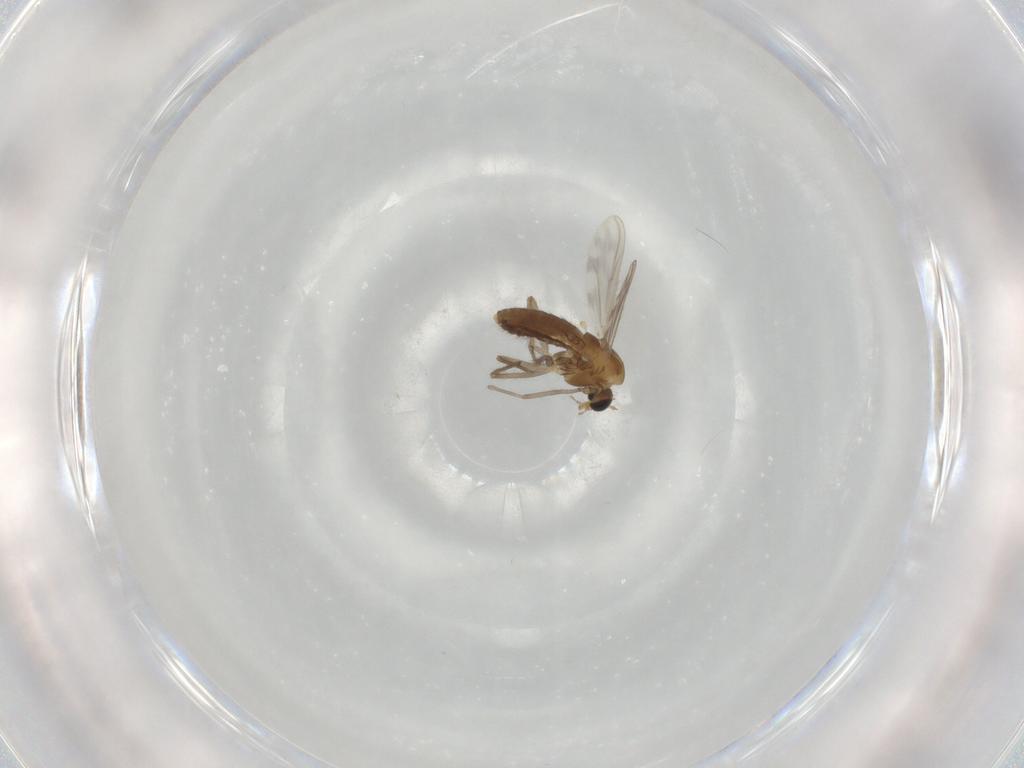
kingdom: Animalia
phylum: Arthropoda
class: Insecta
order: Diptera
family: Chironomidae
